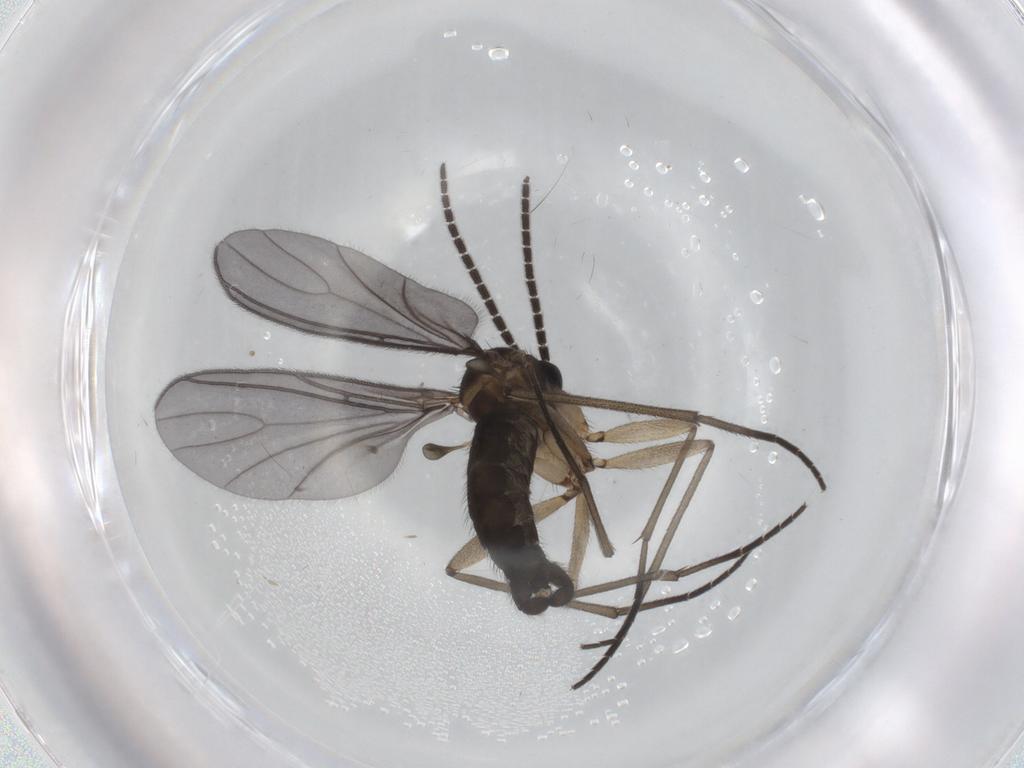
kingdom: Animalia
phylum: Arthropoda
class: Insecta
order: Diptera
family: Sciaridae
